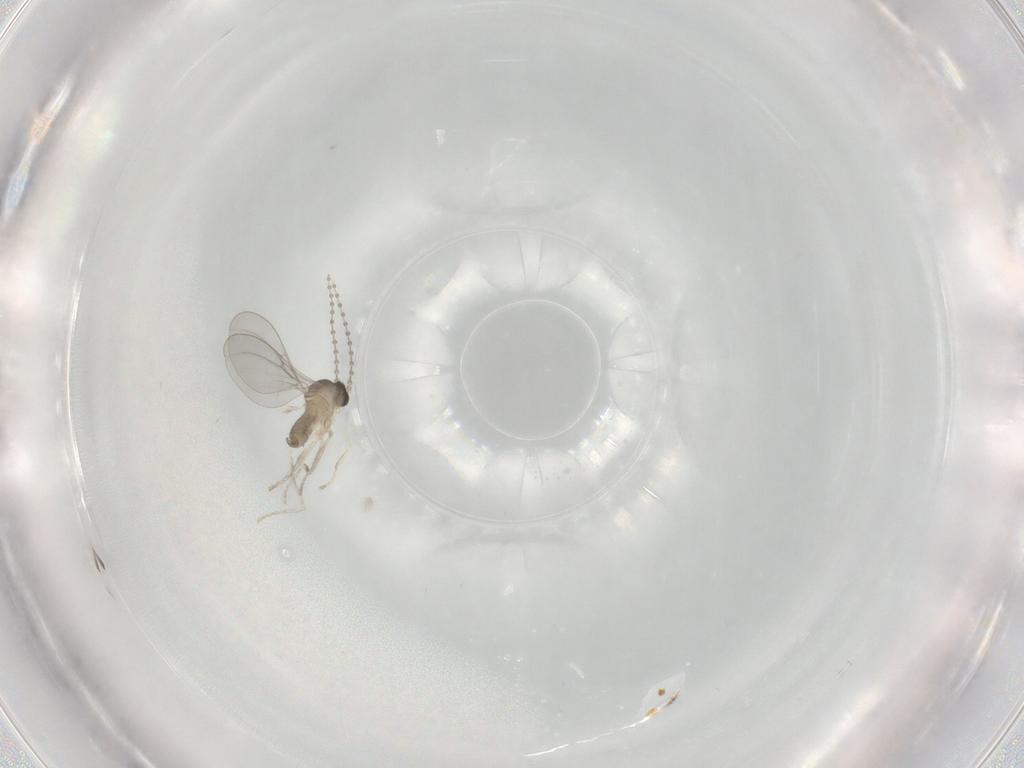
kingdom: Animalia
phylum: Arthropoda
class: Insecta
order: Diptera
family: Cecidomyiidae
